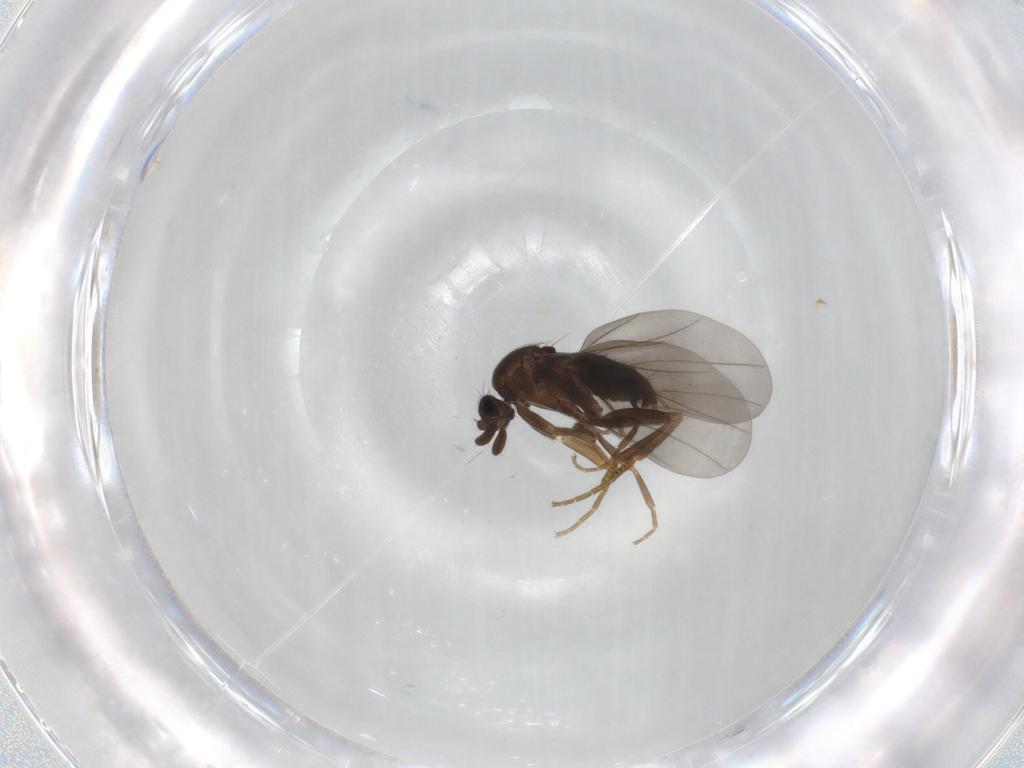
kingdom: Animalia
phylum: Arthropoda
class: Insecta
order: Diptera
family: Phoridae
